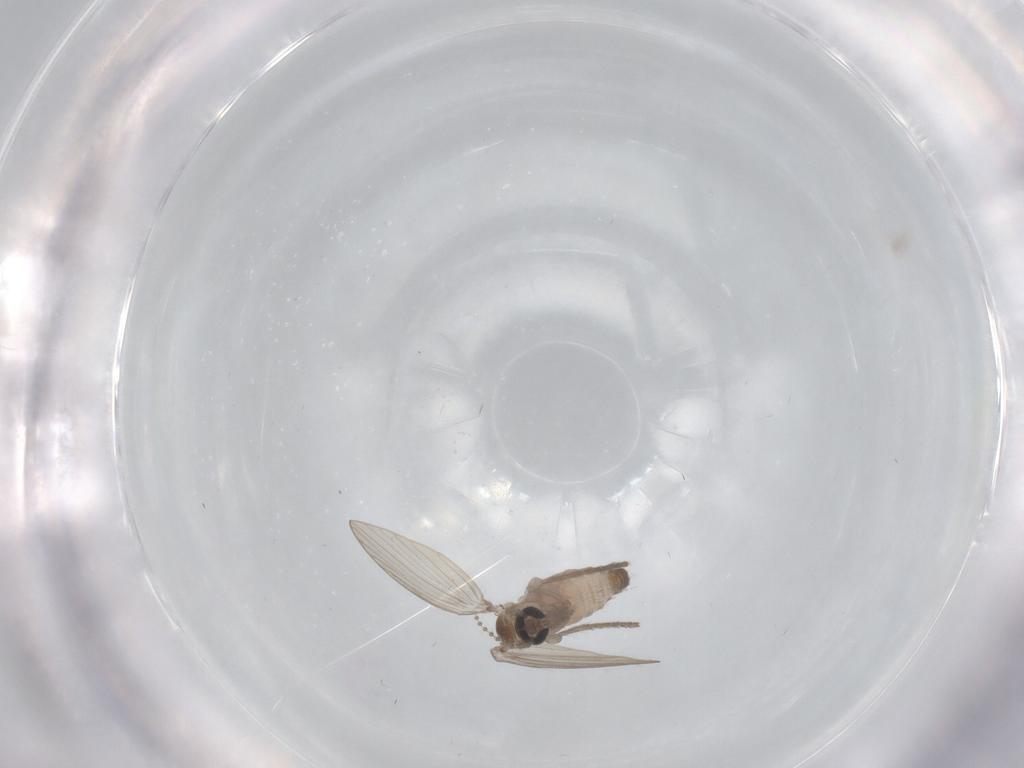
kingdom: Animalia
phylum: Arthropoda
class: Insecta
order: Diptera
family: Psychodidae
